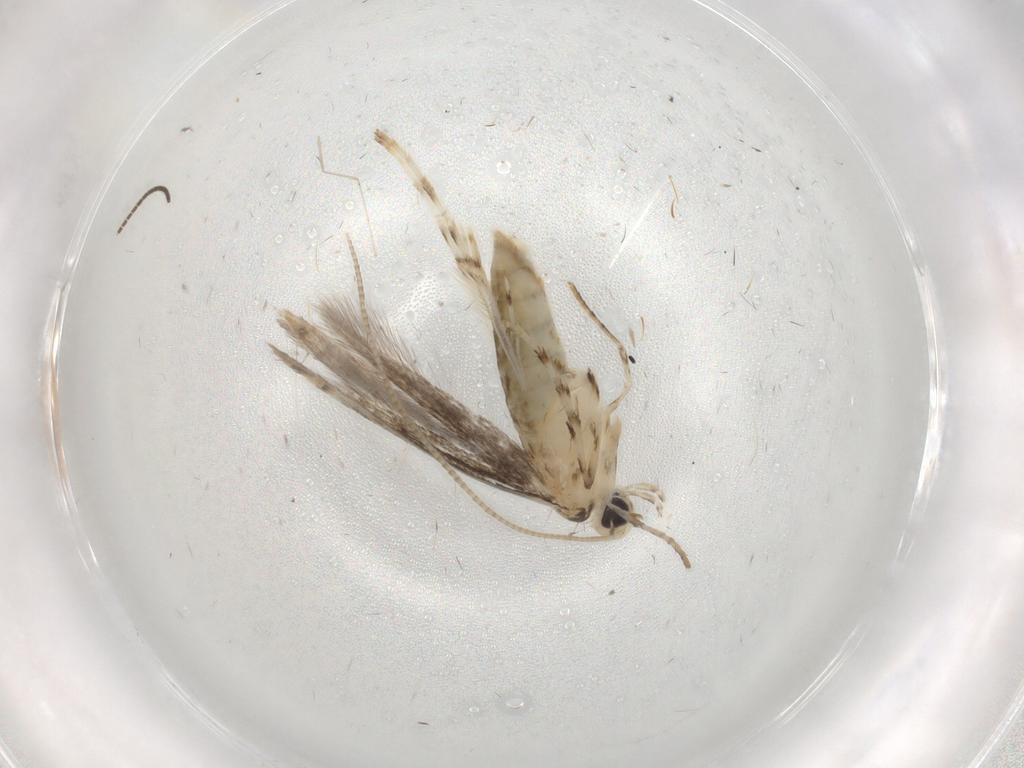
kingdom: Animalia
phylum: Arthropoda
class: Insecta
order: Lepidoptera
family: Gracillariidae
